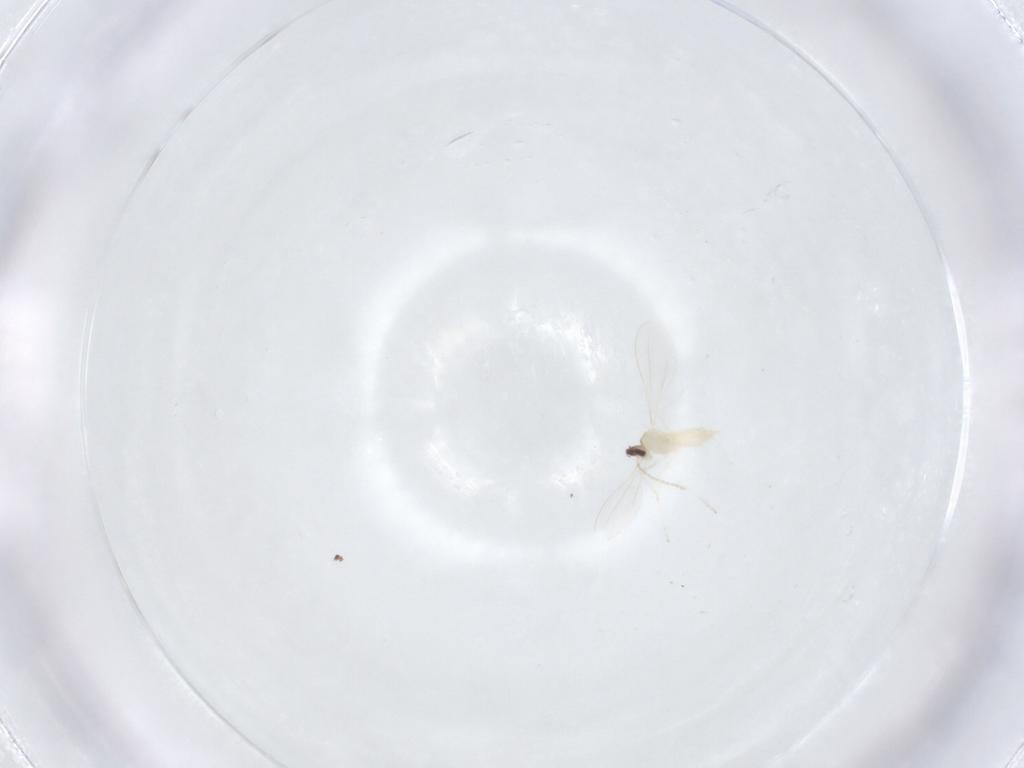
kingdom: Animalia
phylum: Arthropoda
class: Insecta
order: Diptera
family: Cecidomyiidae
